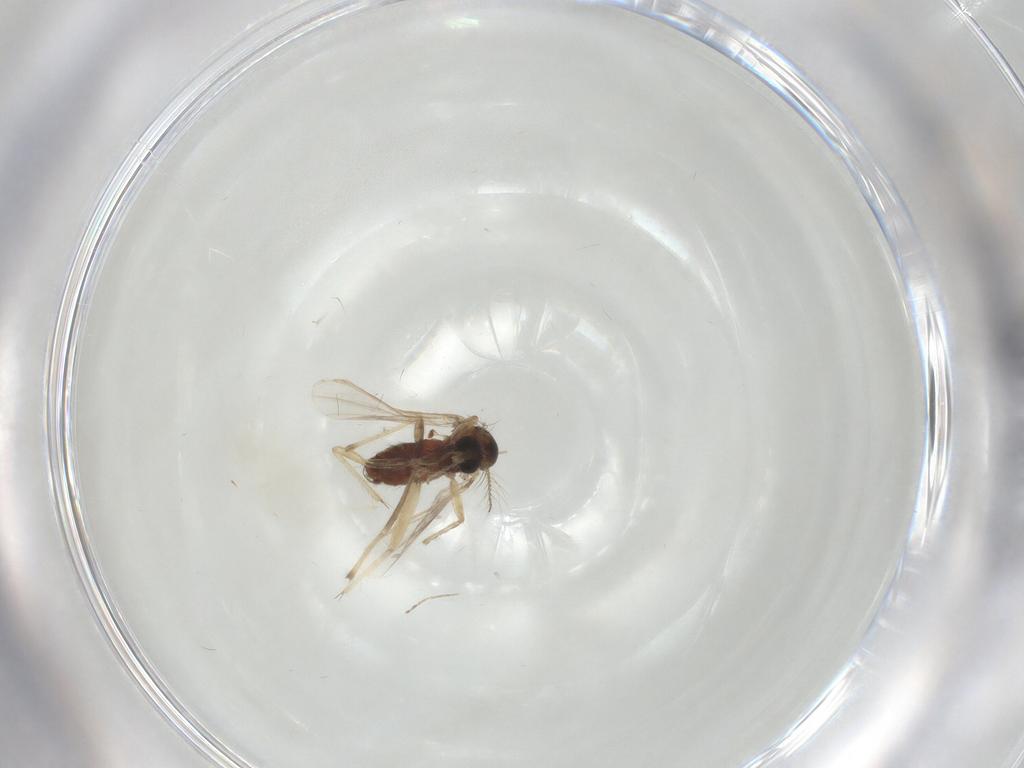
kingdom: Animalia
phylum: Arthropoda
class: Insecta
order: Diptera
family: Chironomidae
